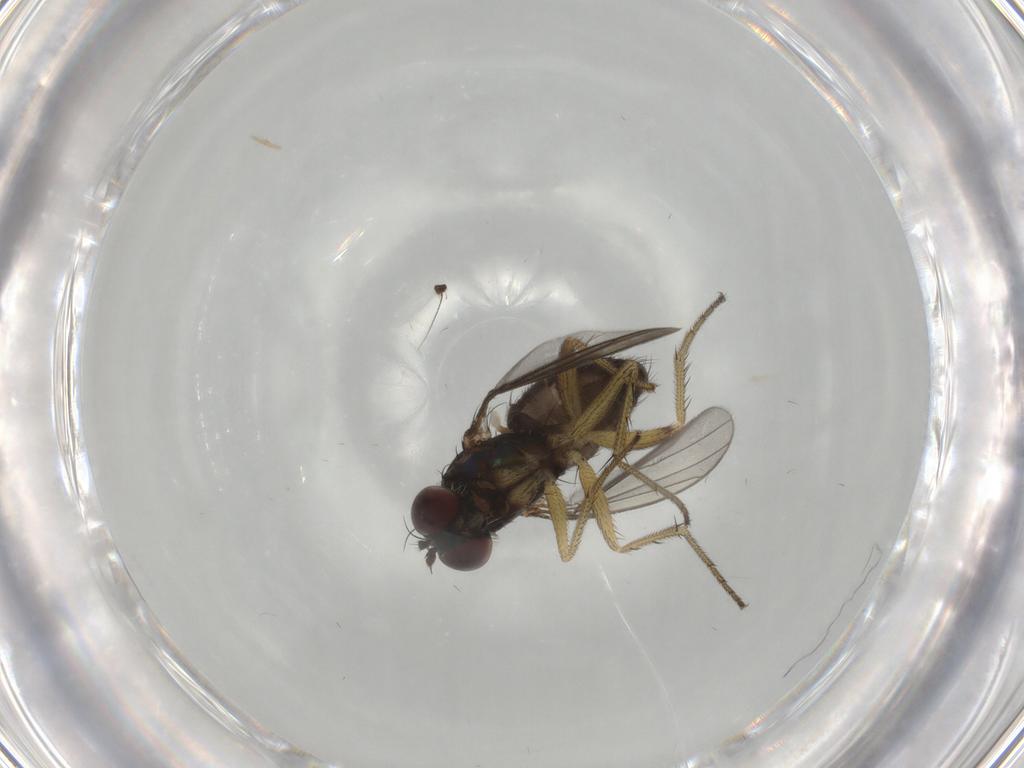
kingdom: Animalia
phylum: Arthropoda
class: Insecta
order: Diptera
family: Dolichopodidae
